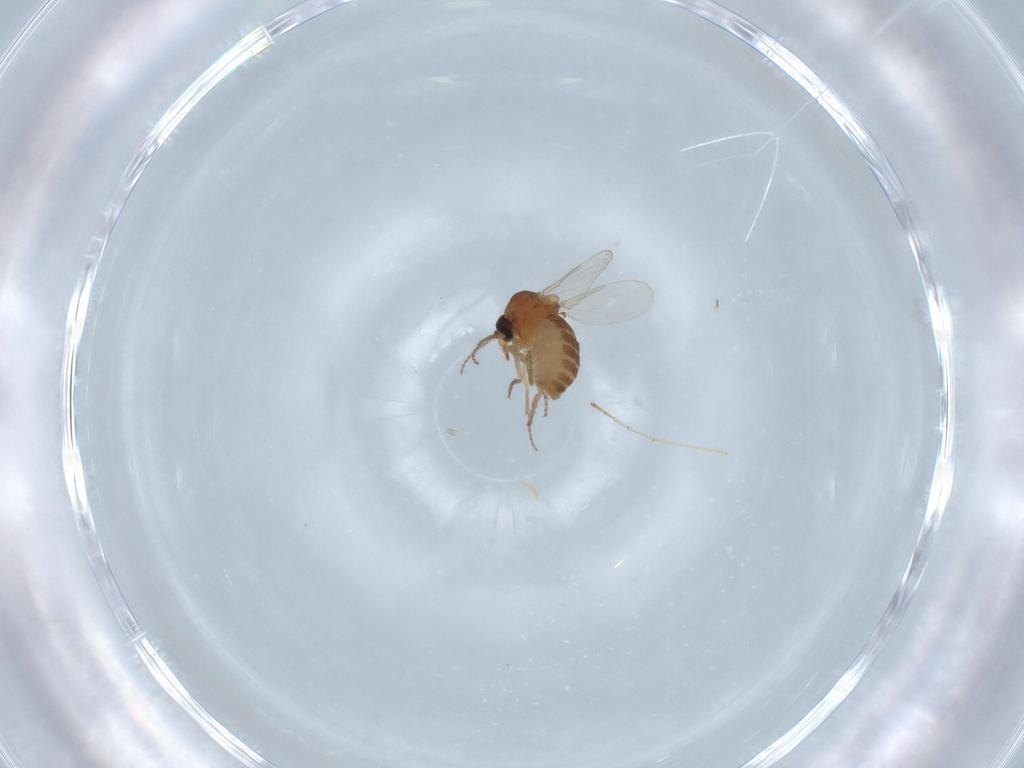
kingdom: Animalia
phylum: Arthropoda
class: Insecta
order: Diptera
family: Ceratopogonidae
